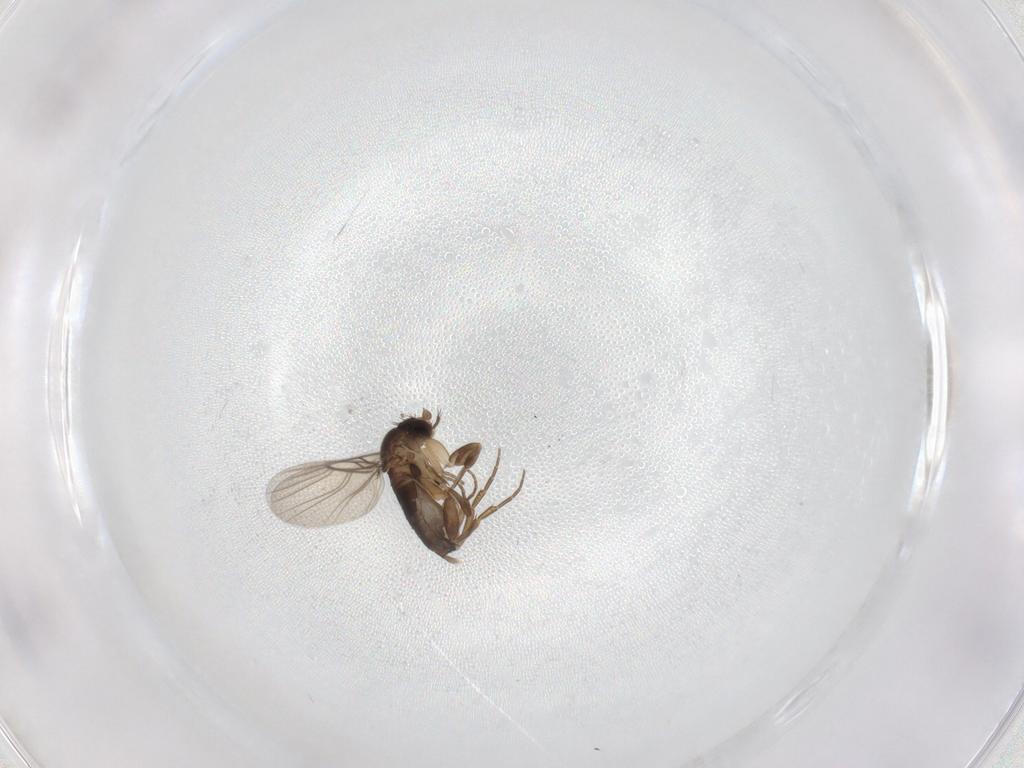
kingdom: Animalia
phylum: Arthropoda
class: Insecta
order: Diptera
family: Phoridae
